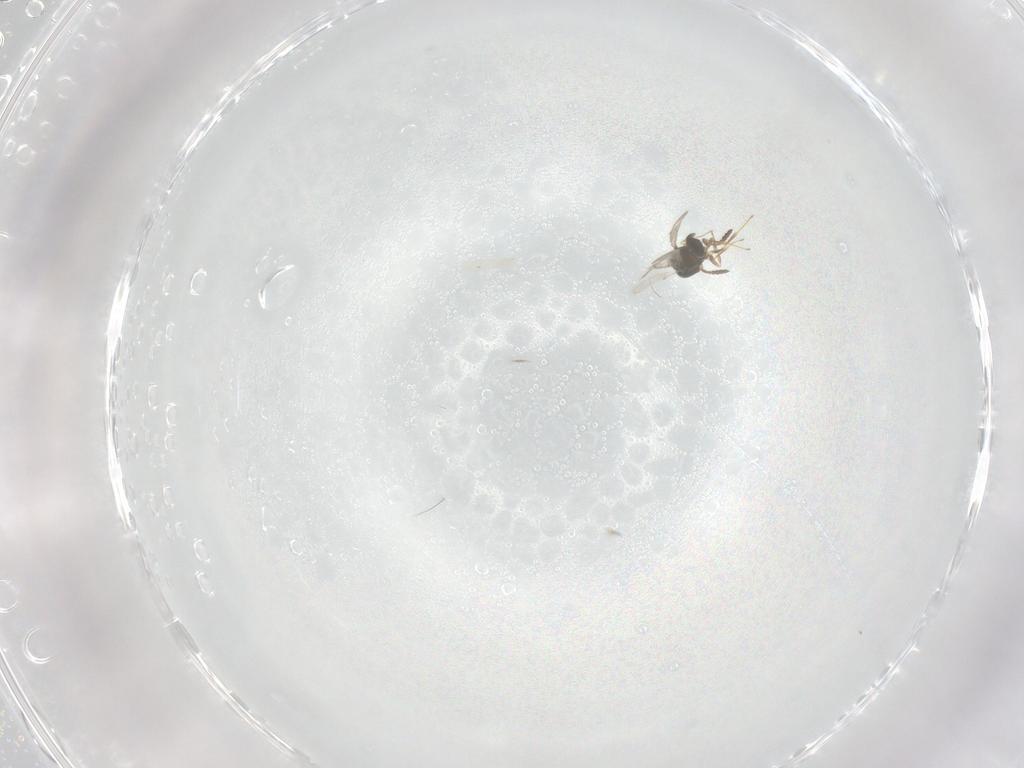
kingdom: Animalia
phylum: Arthropoda
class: Insecta
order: Hymenoptera
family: Scelionidae
